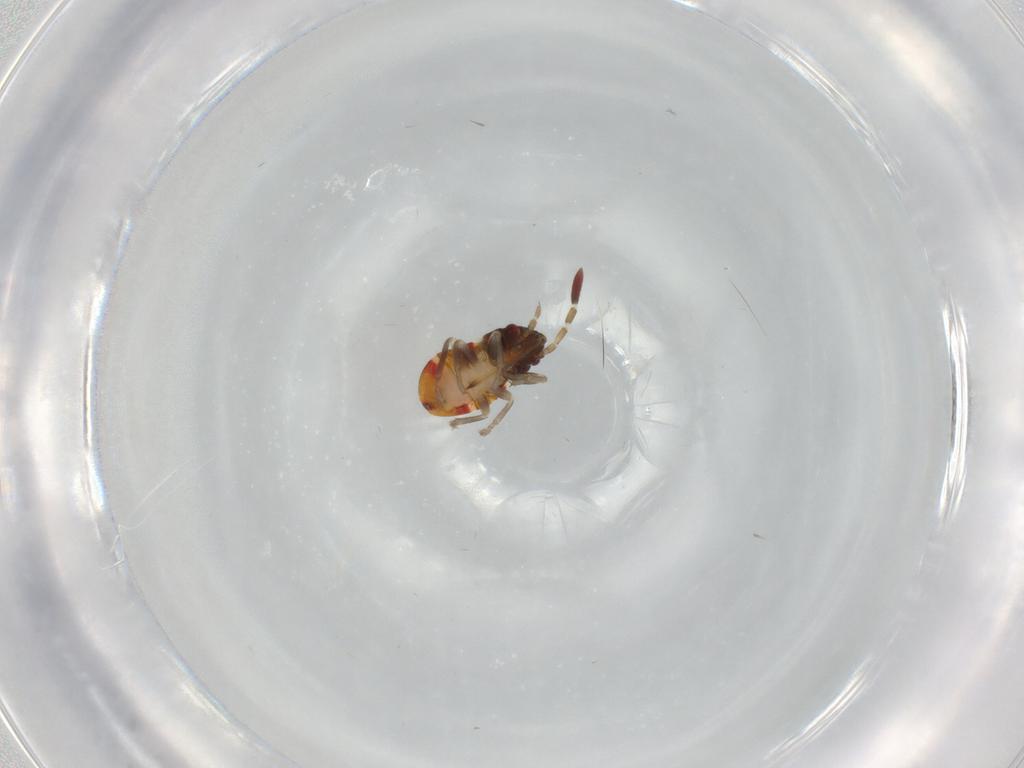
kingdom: Animalia
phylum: Arthropoda
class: Insecta
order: Hemiptera
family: Rhyparochromidae
